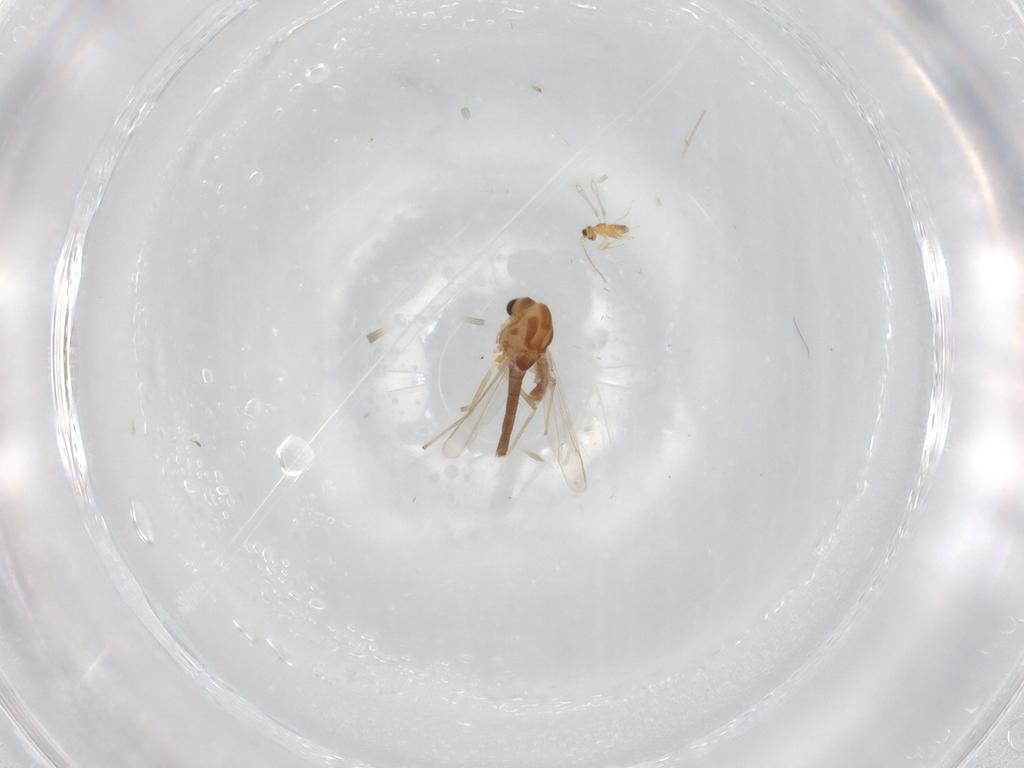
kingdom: Animalia
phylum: Arthropoda
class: Insecta
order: Diptera
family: Chironomidae
